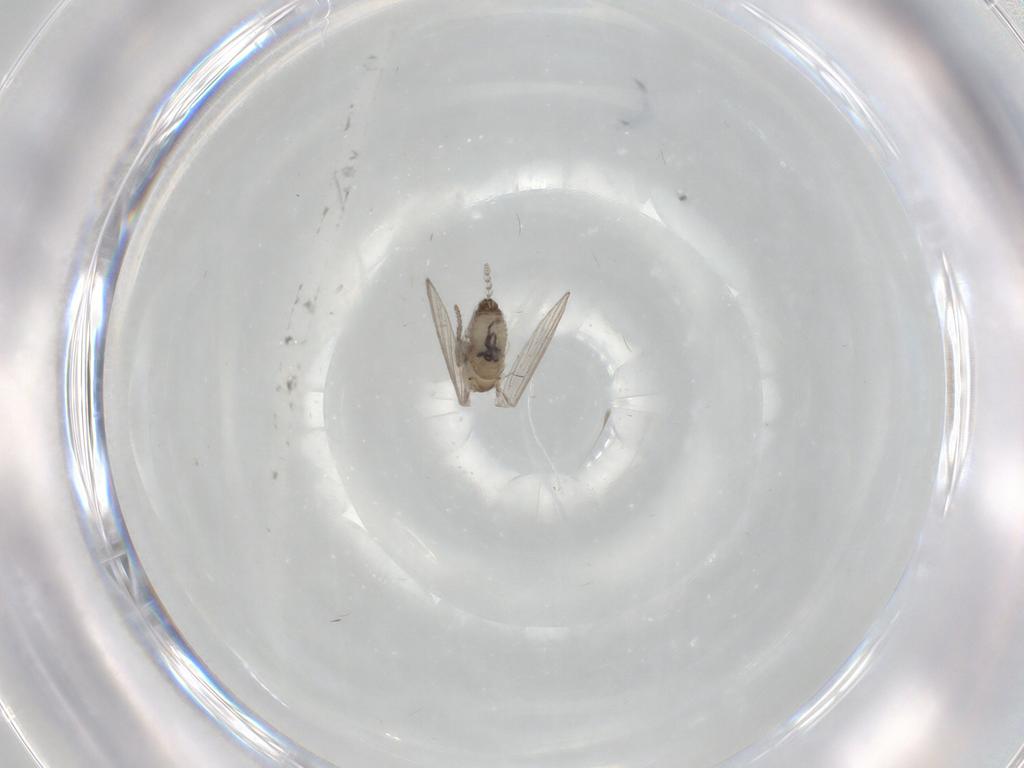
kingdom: Animalia
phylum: Arthropoda
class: Insecta
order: Diptera
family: Psychodidae
